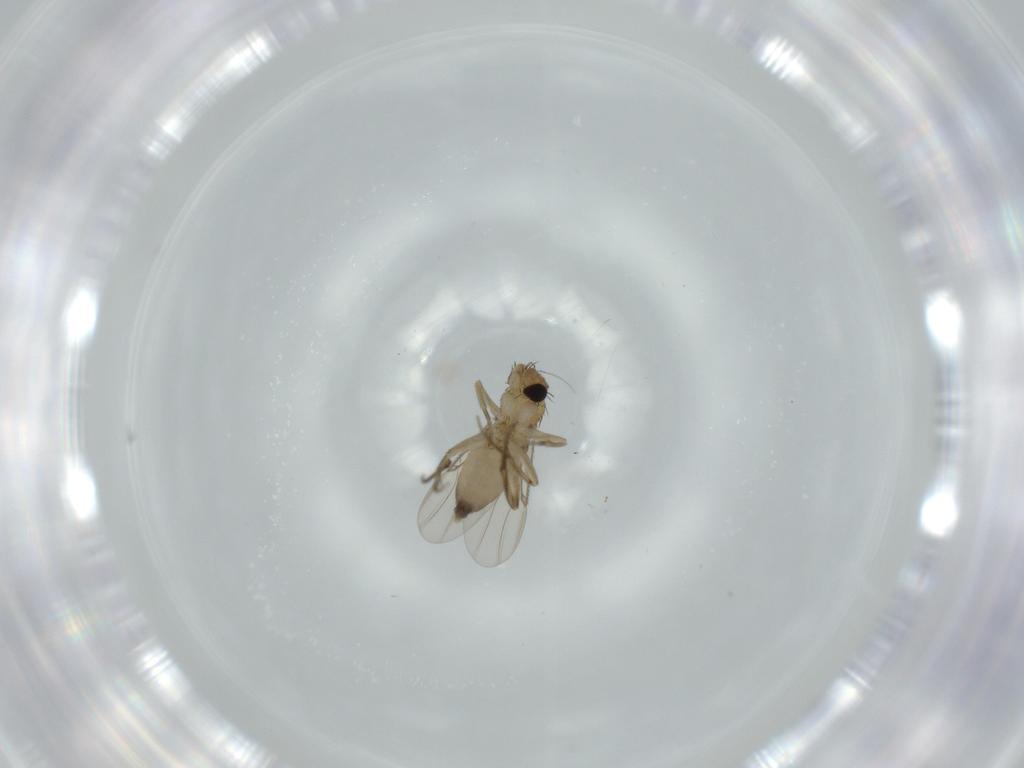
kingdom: Animalia
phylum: Arthropoda
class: Insecta
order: Diptera
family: Phoridae
